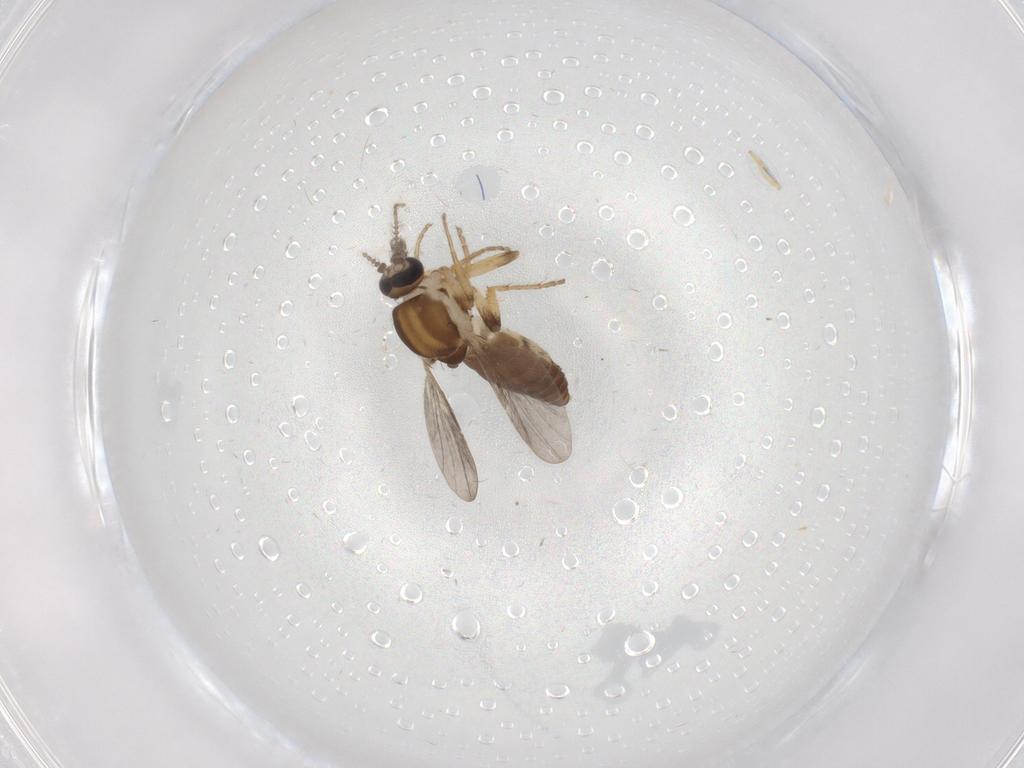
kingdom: Animalia
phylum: Arthropoda
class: Insecta
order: Diptera
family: Ceratopogonidae
